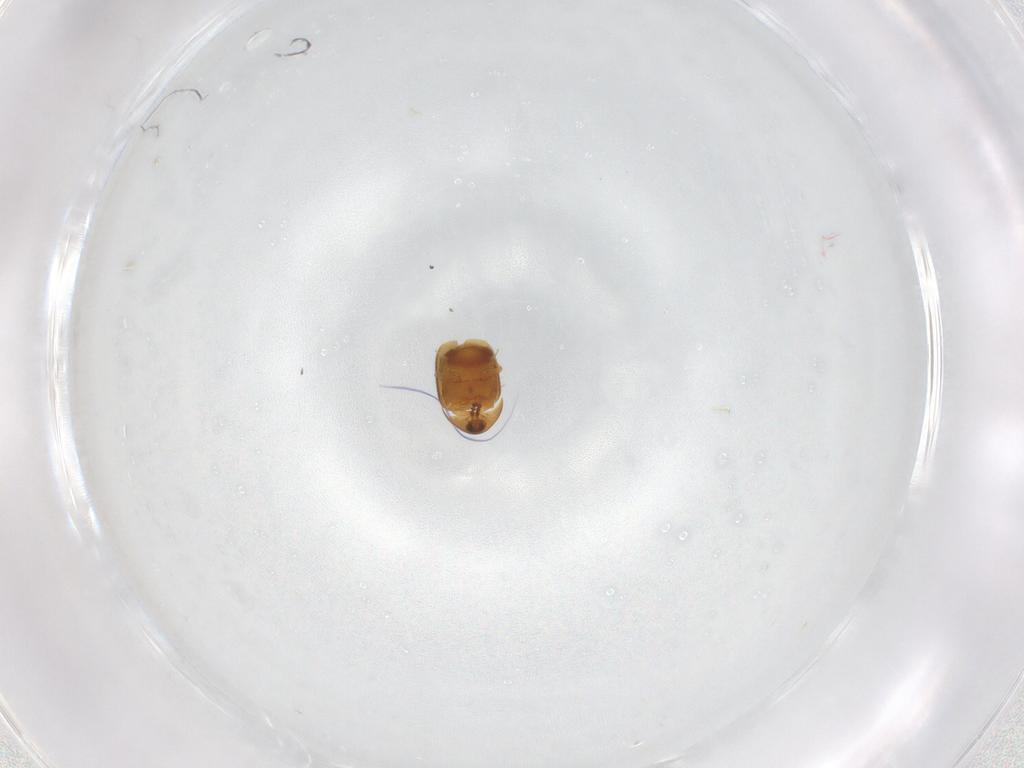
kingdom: Animalia
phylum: Arthropoda
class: Insecta
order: Coleoptera
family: Corylophidae
